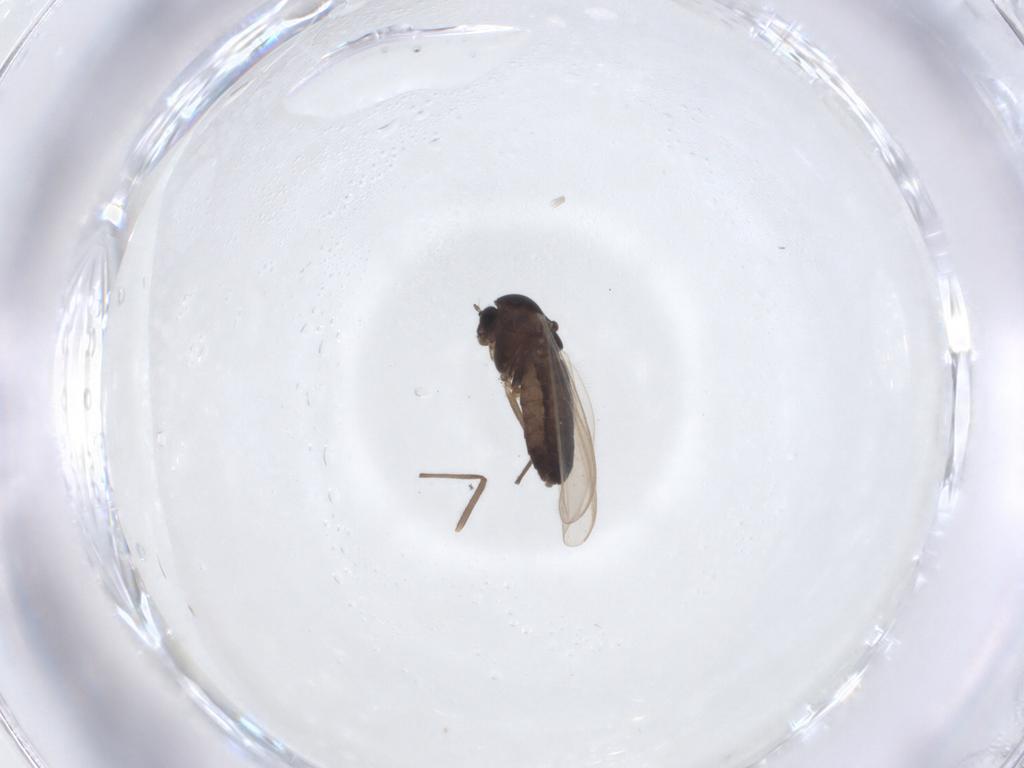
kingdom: Animalia
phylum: Arthropoda
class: Insecta
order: Diptera
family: Chironomidae
